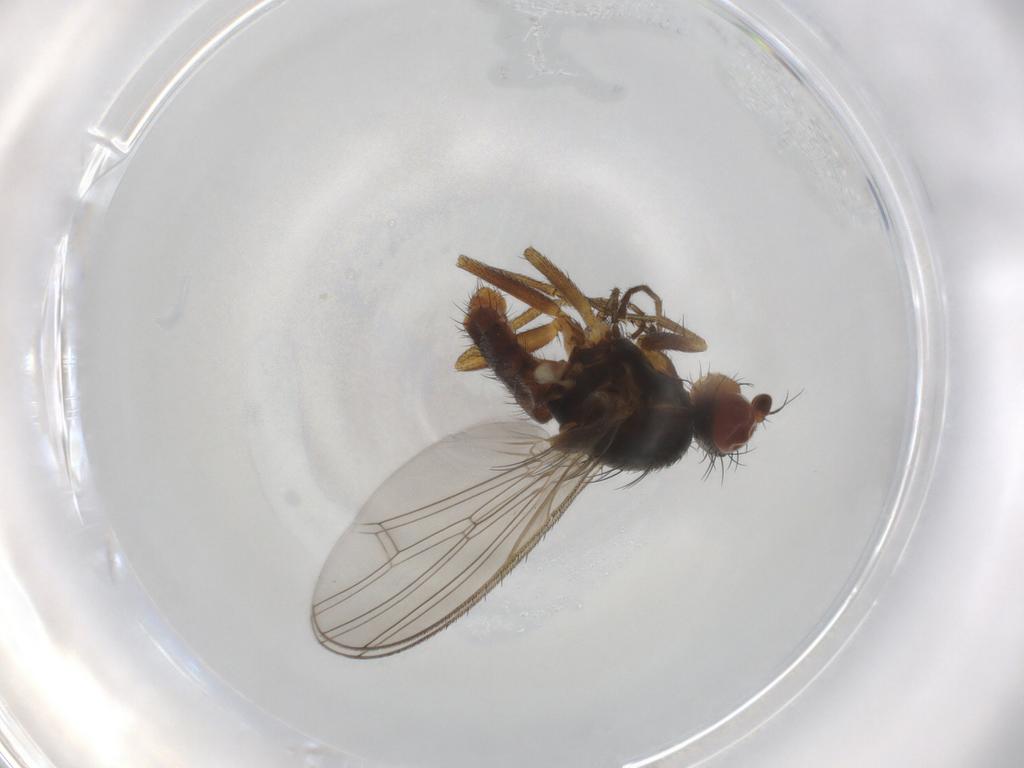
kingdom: Animalia
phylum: Arthropoda
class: Insecta
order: Diptera
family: Heleomyzidae
